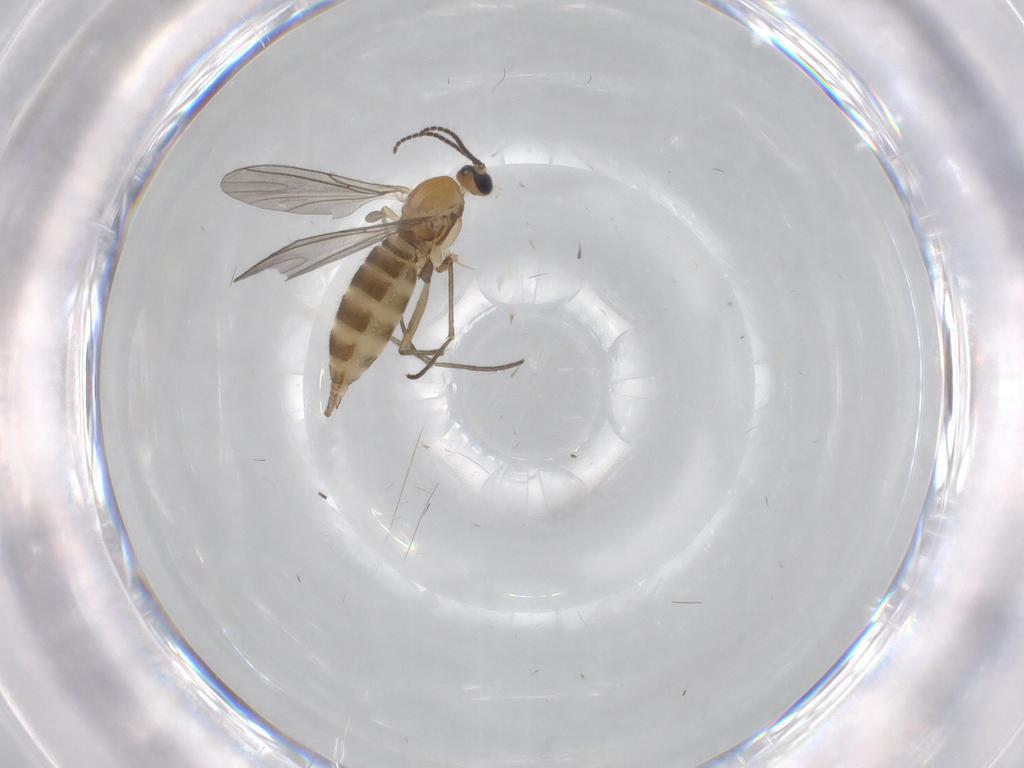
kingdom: Animalia
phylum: Arthropoda
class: Insecta
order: Diptera
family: Sciaridae
